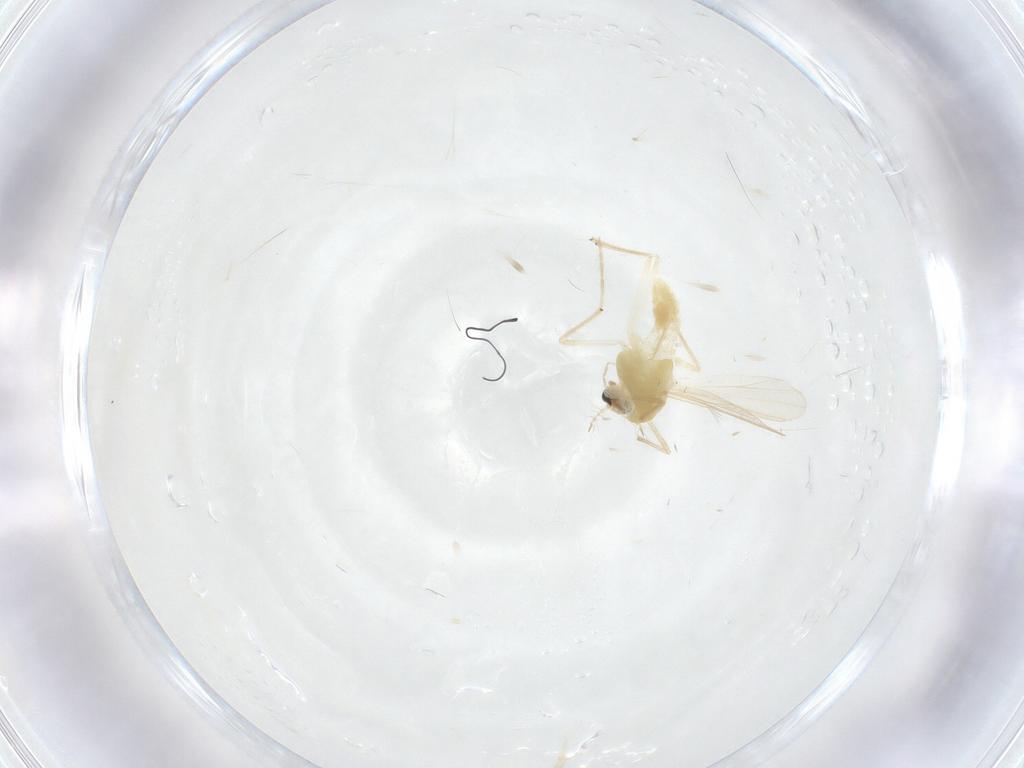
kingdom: Animalia
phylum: Arthropoda
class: Insecta
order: Diptera
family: Chironomidae
